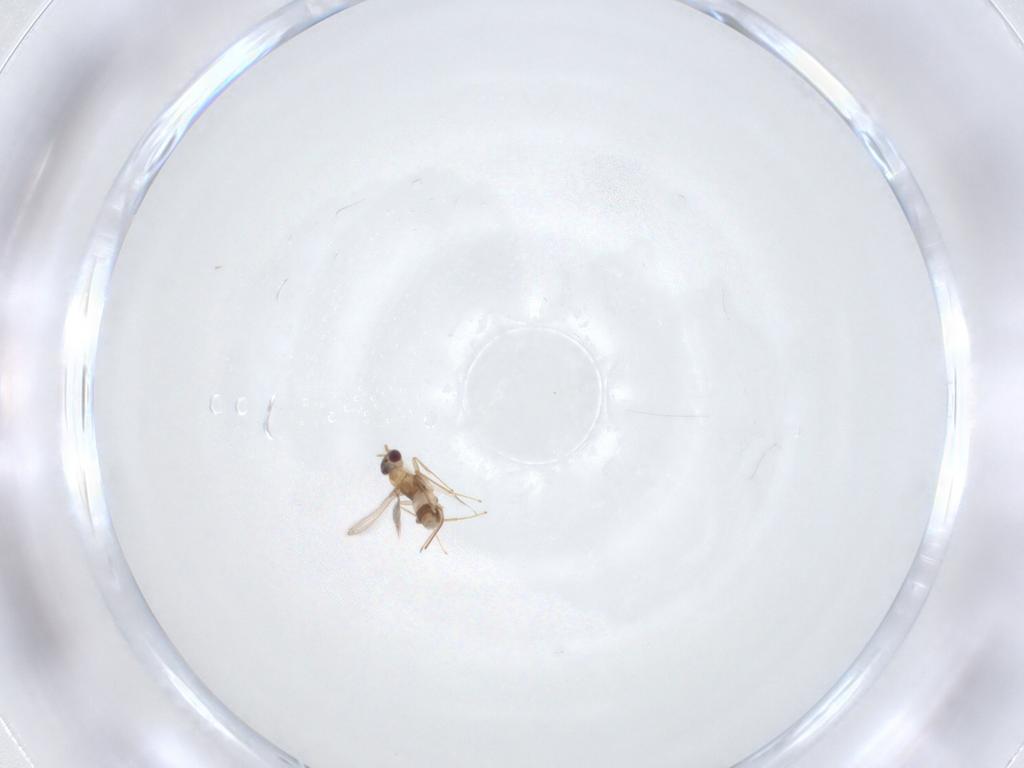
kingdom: Animalia
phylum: Arthropoda
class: Insecta
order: Hymenoptera
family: Mymaridae
